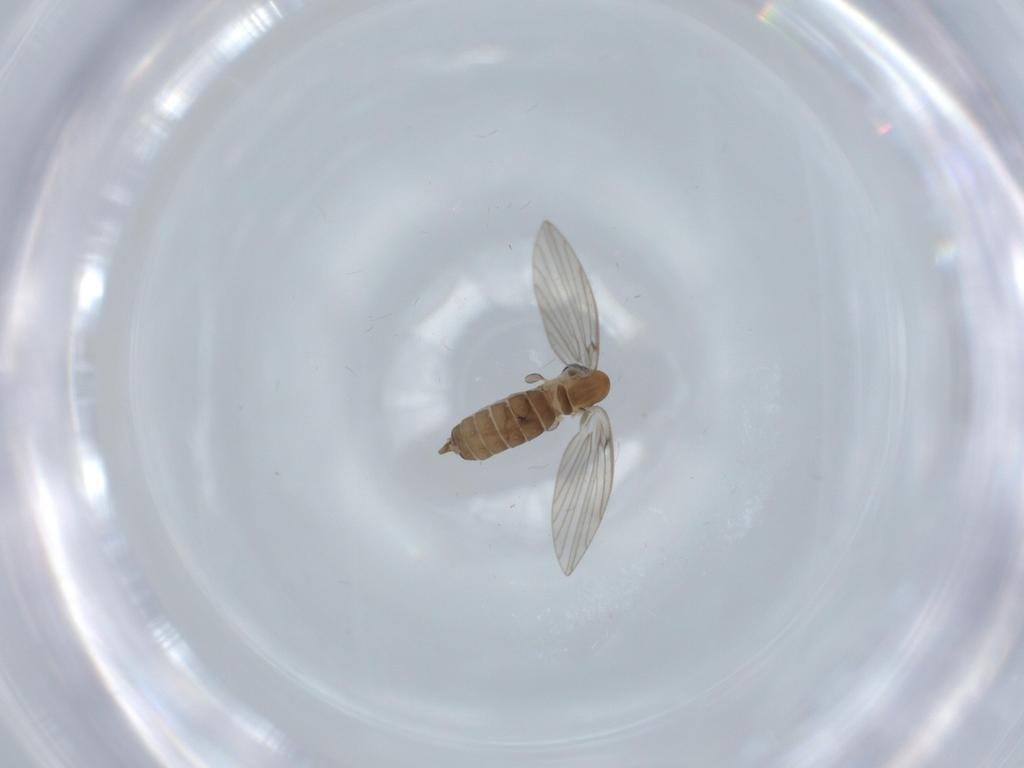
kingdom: Animalia
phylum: Arthropoda
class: Insecta
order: Diptera
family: Psychodidae
